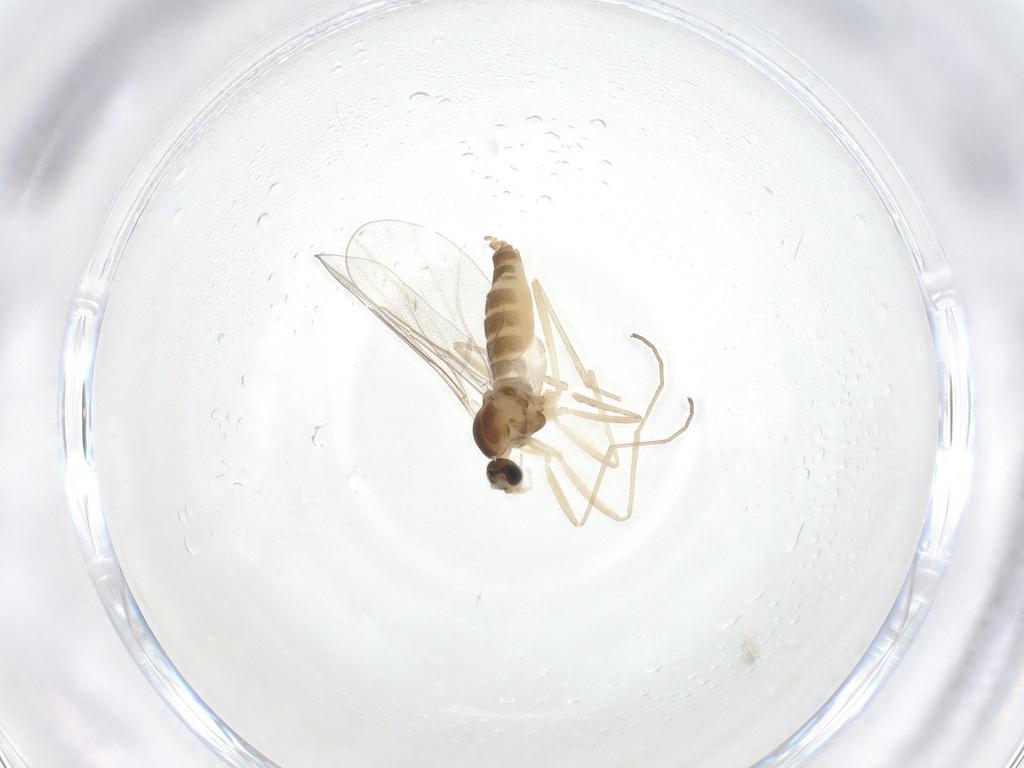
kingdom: Animalia
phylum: Arthropoda
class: Insecta
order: Diptera
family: Cecidomyiidae
